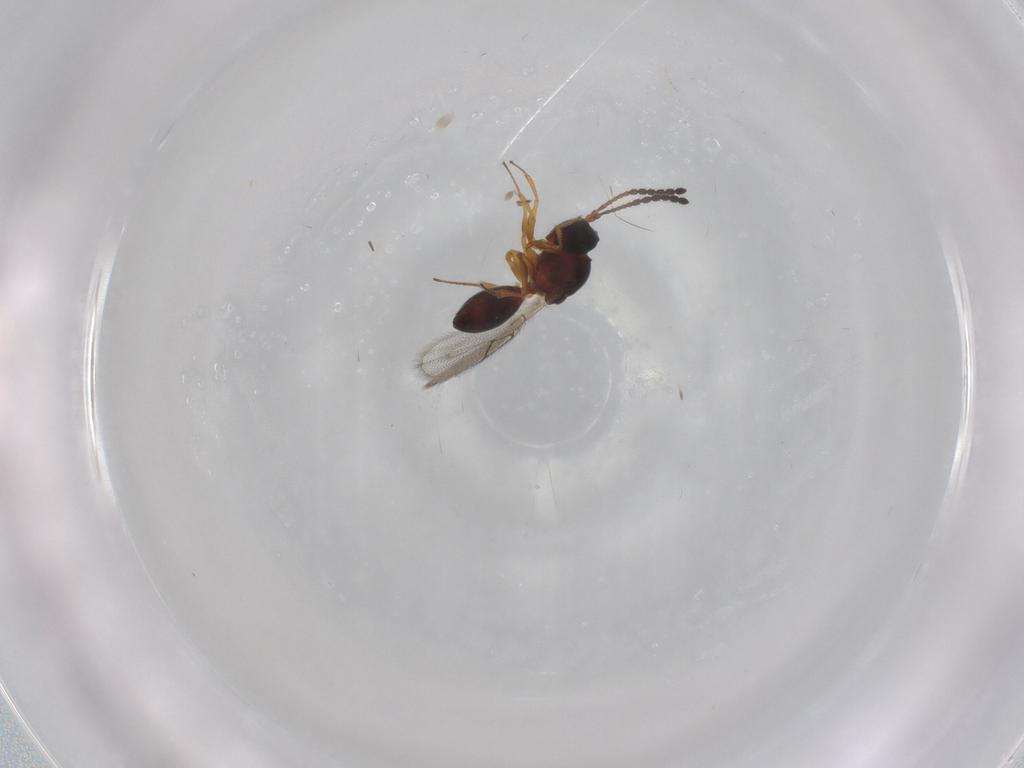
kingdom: Animalia
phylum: Arthropoda
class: Insecta
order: Hymenoptera
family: Figitidae
